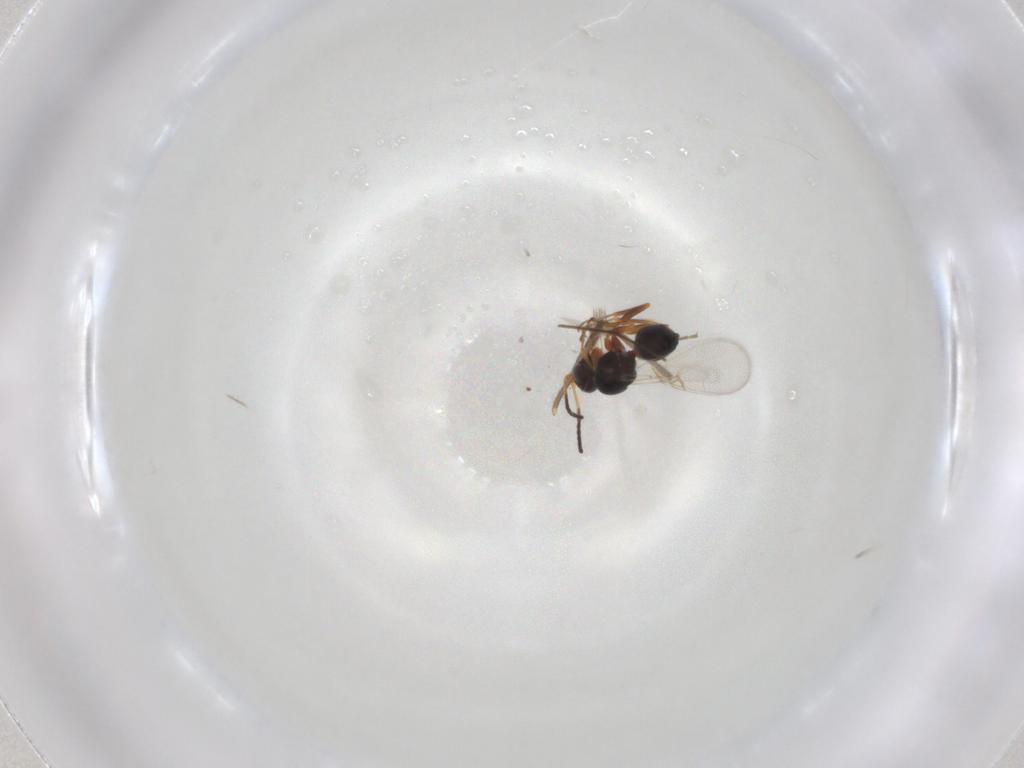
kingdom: Animalia
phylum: Arthropoda
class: Insecta
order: Hymenoptera
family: Figitidae
